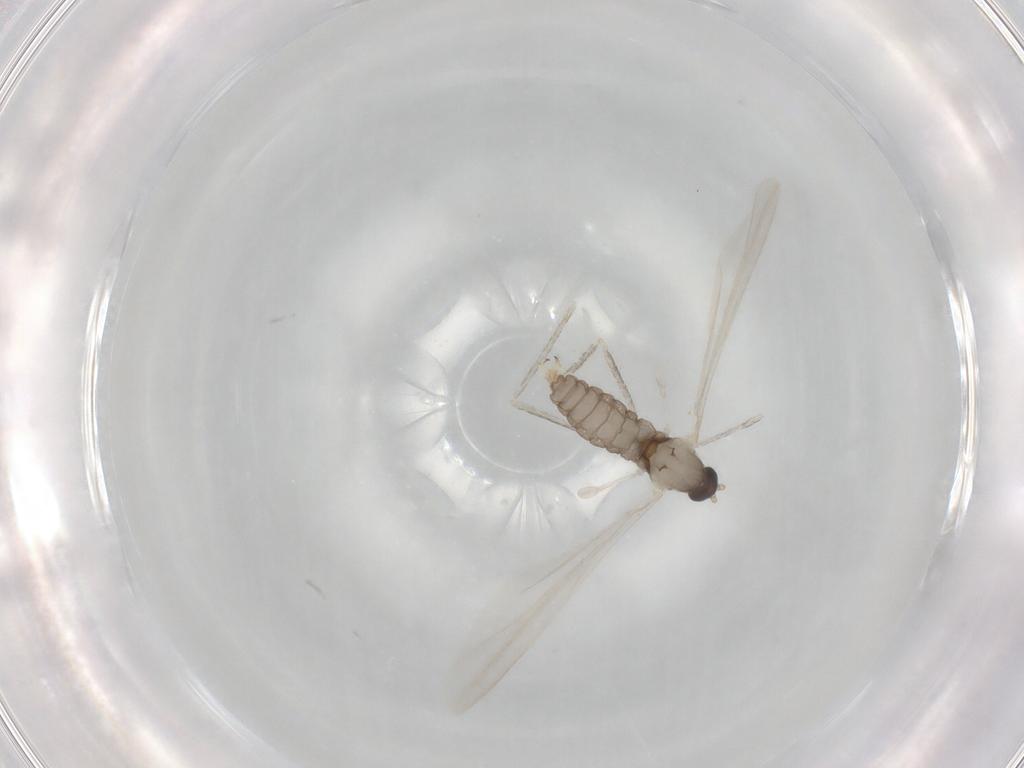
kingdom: Animalia
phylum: Arthropoda
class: Insecta
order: Diptera
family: Cecidomyiidae
